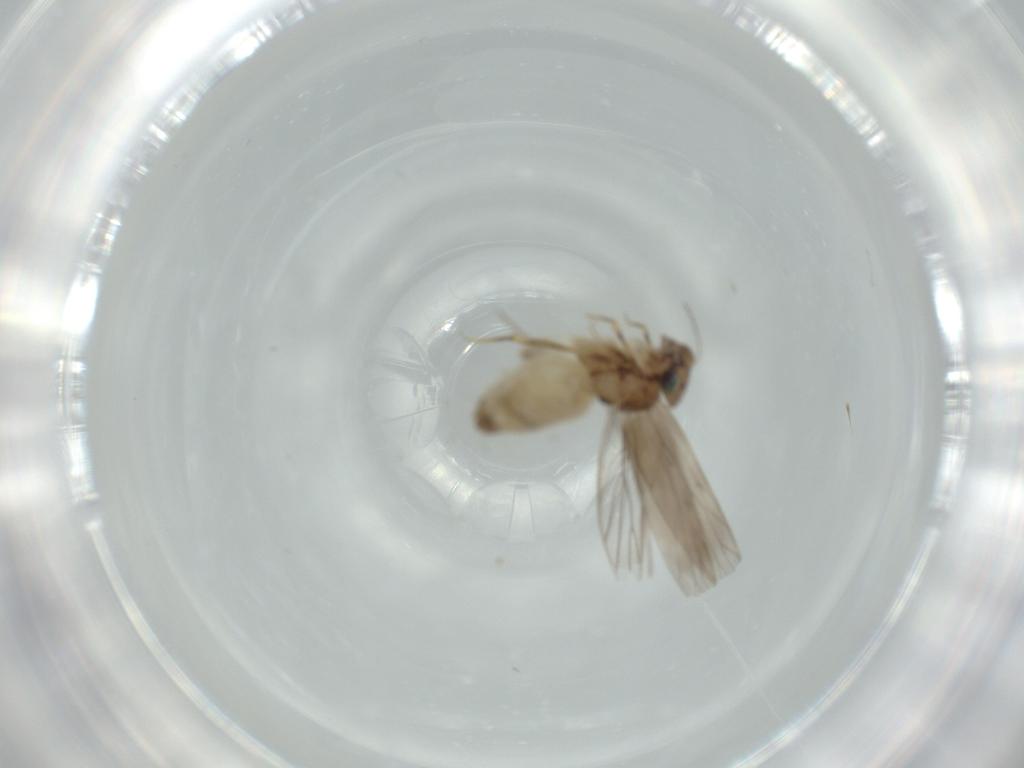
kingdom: Animalia
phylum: Arthropoda
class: Insecta
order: Psocodea
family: Lepidopsocidae
